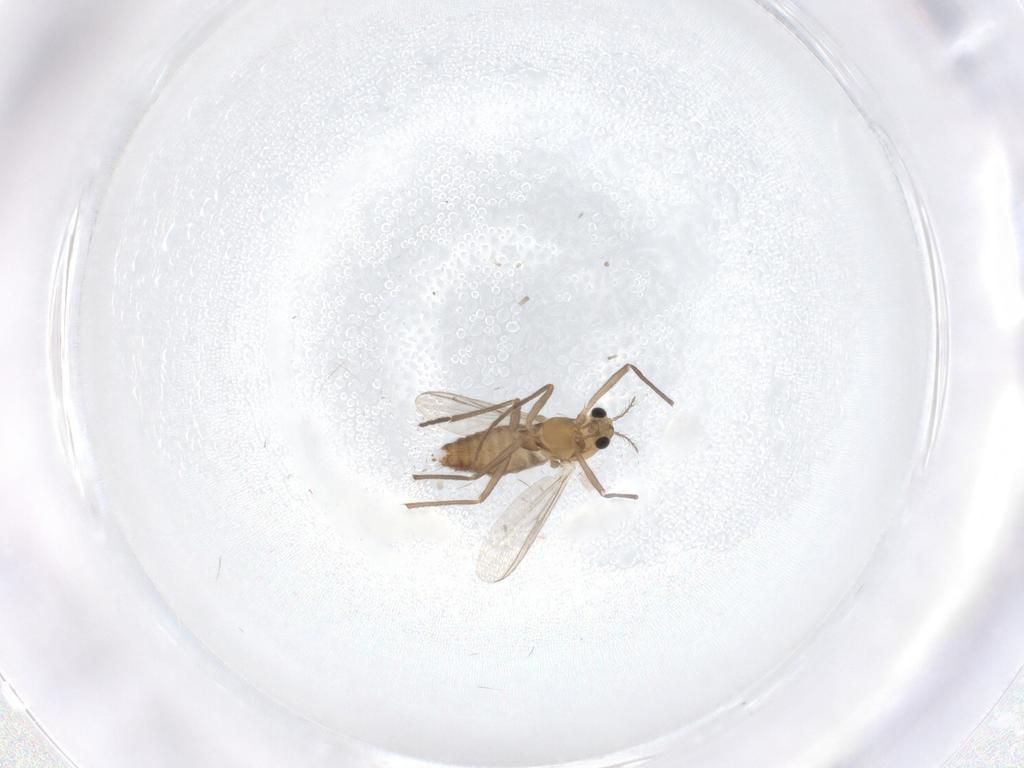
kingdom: Animalia
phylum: Arthropoda
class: Insecta
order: Diptera
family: Chironomidae
